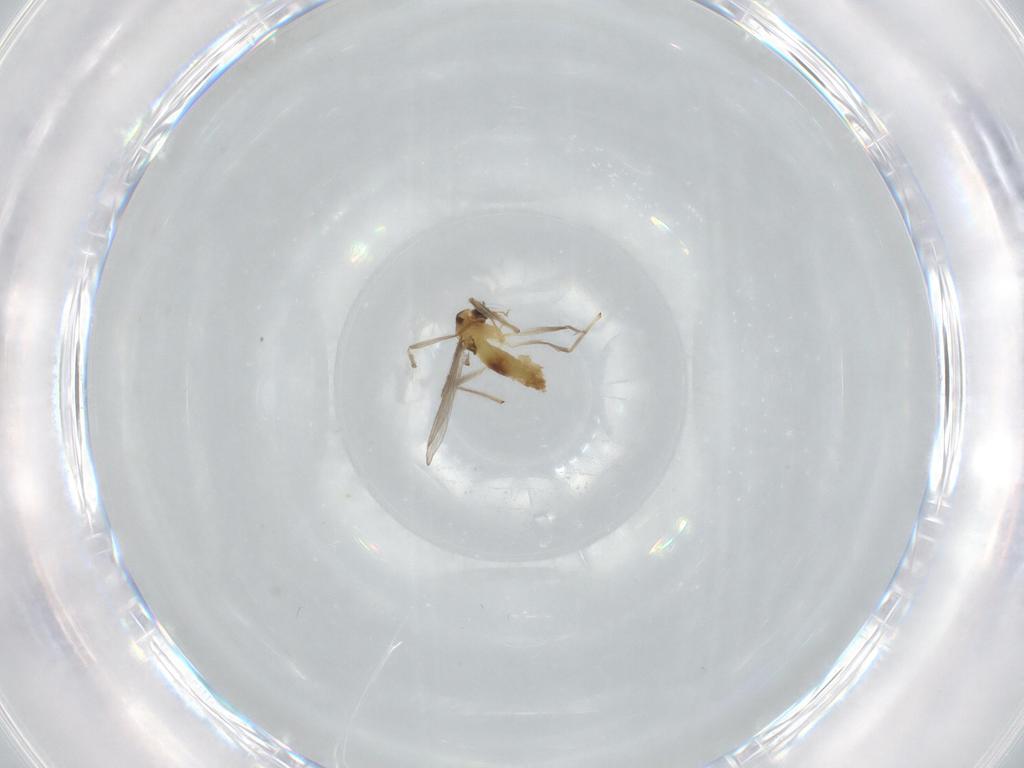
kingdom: Animalia
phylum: Arthropoda
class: Insecta
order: Diptera
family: Chironomidae
